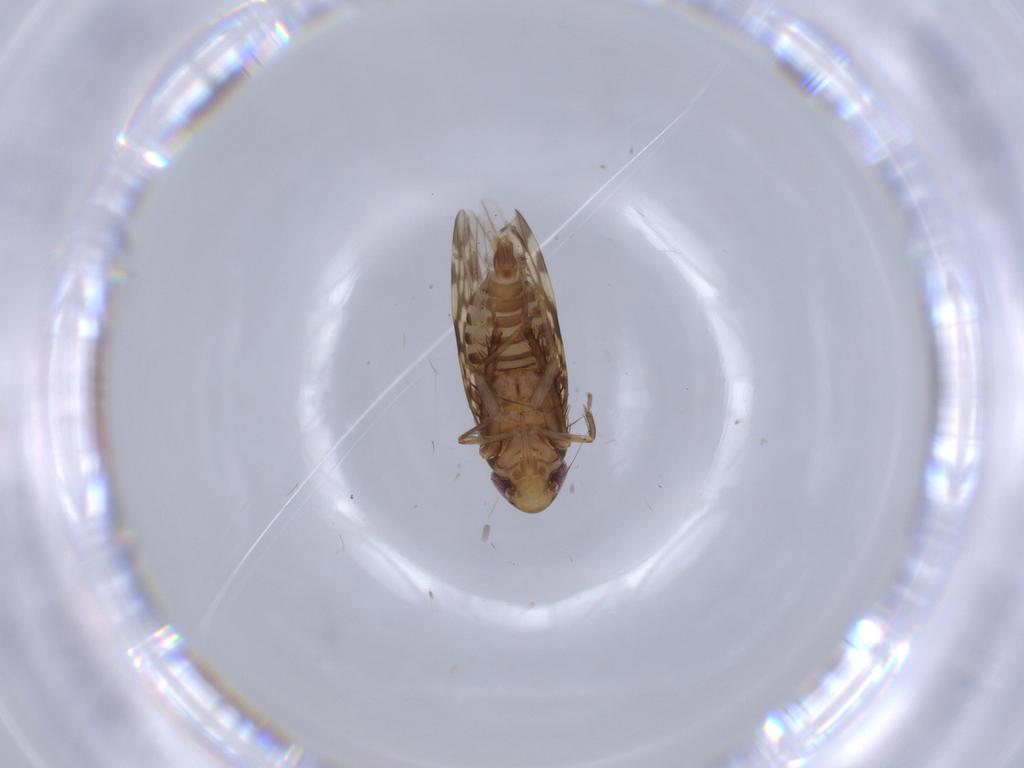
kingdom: Animalia
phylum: Arthropoda
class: Insecta
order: Hemiptera
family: Cicadellidae
